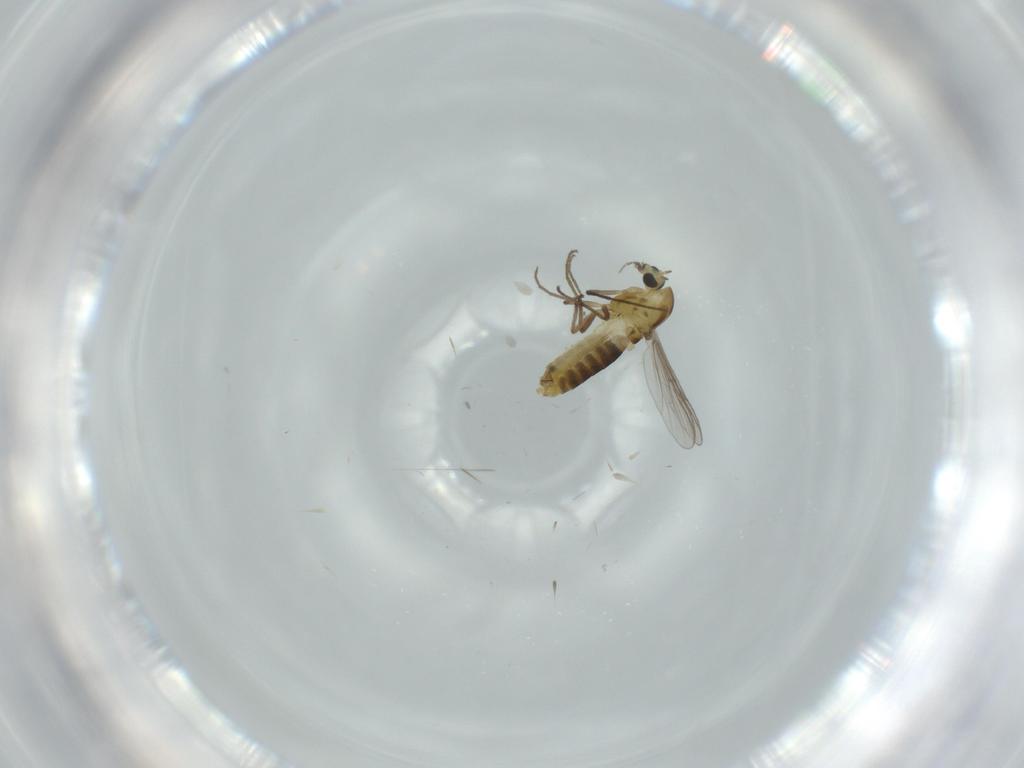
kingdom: Animalia
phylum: Arthropoda
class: Insecta
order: Diptera
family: Chironomidae
